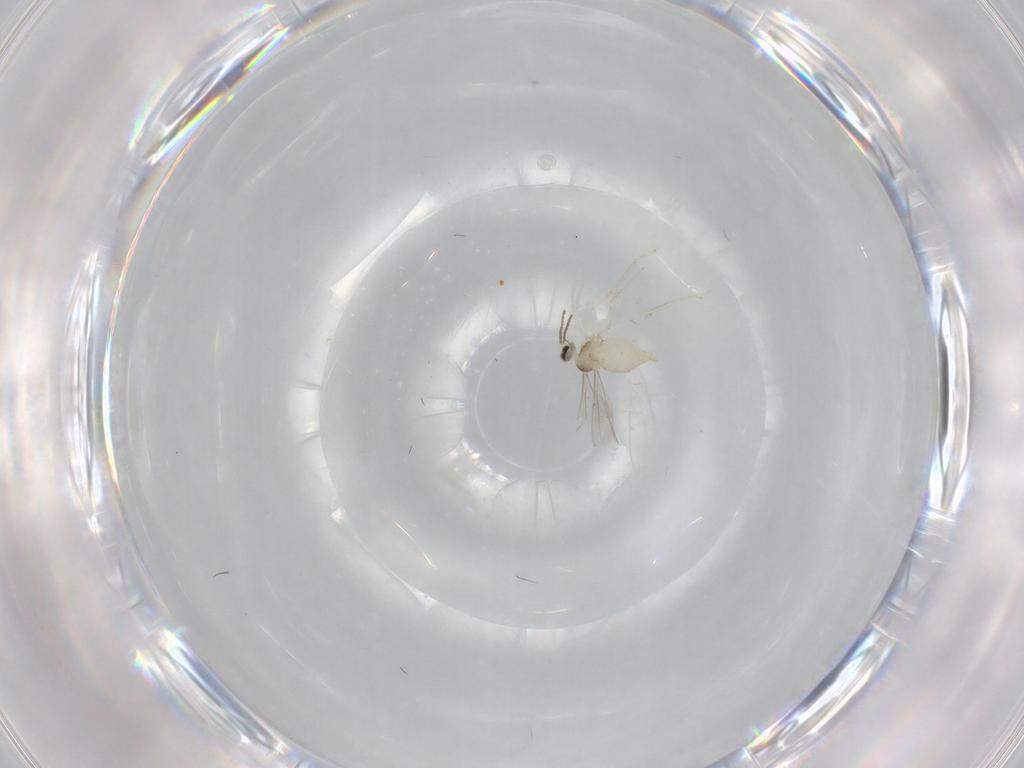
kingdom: Animalia
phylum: Arthropoda
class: Insecta
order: Diptera
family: Cecidomyiidae
